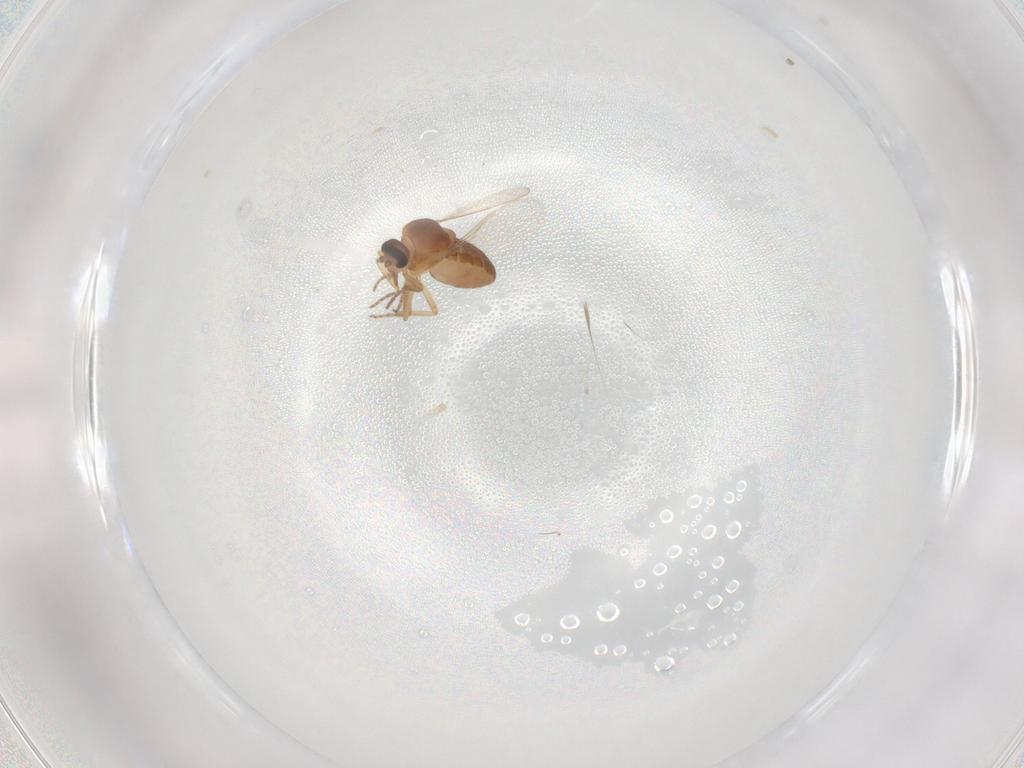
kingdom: Animalia
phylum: Arthropoda
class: Insecta
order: Diptera
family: Ceratopogonidae
